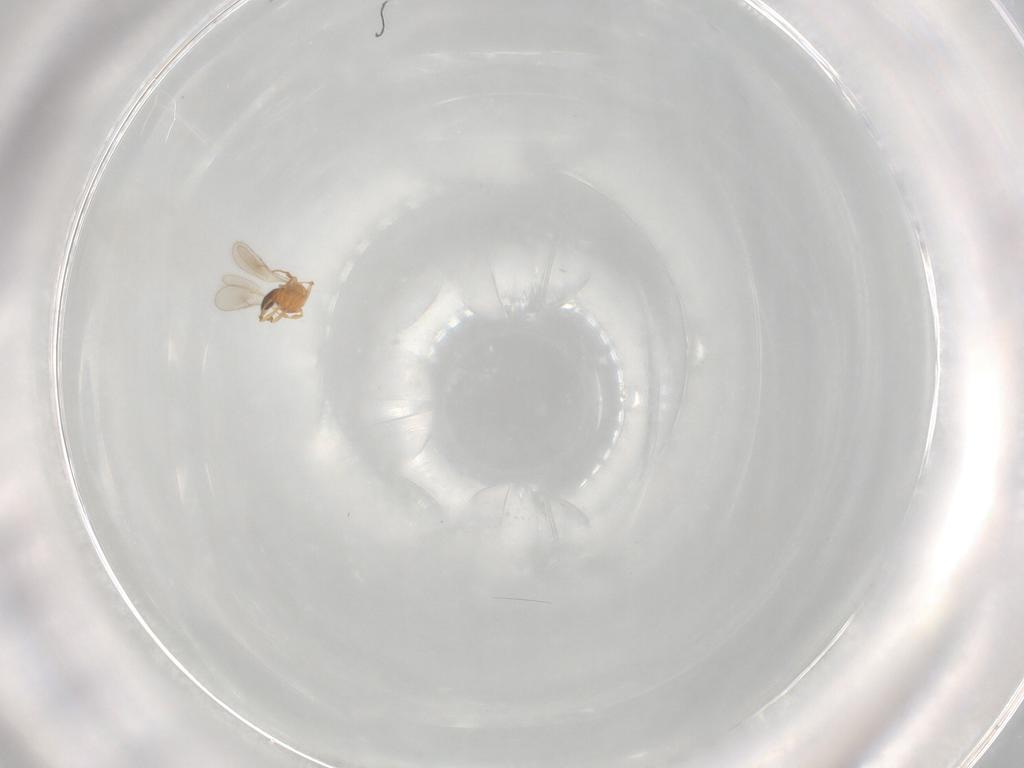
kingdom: Animalia
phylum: Arthropoda
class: Insecta
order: Hymenoptera
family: Scelionidae
